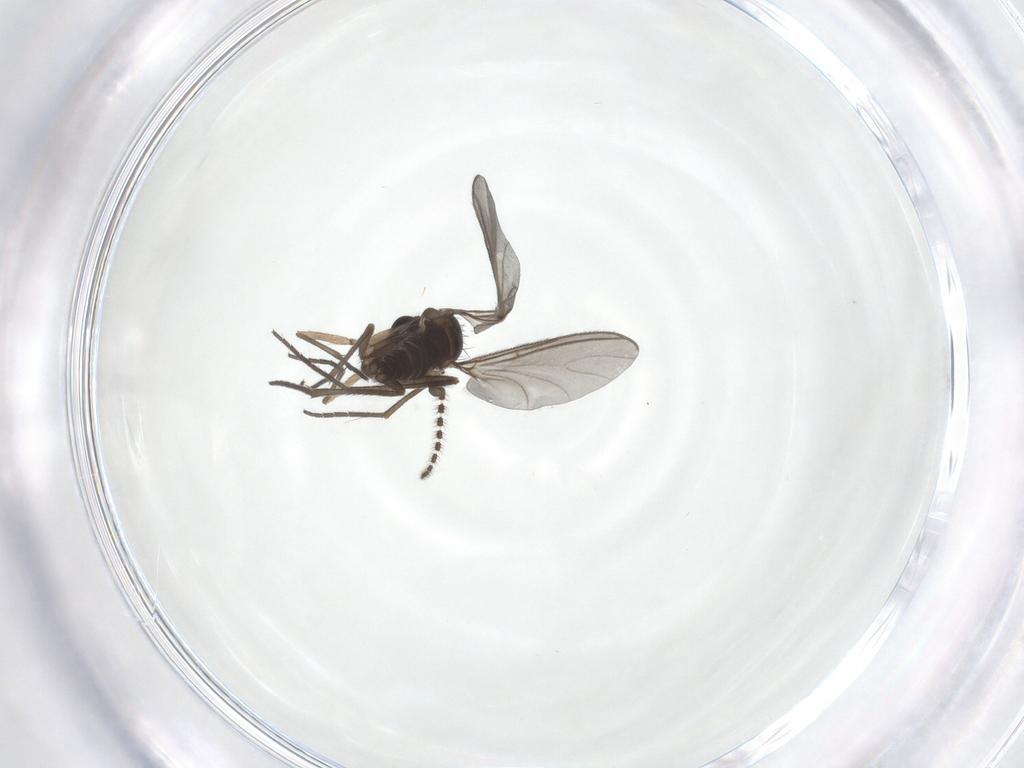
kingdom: Animalia
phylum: Arthropoda
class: Insecta
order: Diptera
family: Sciaridae
